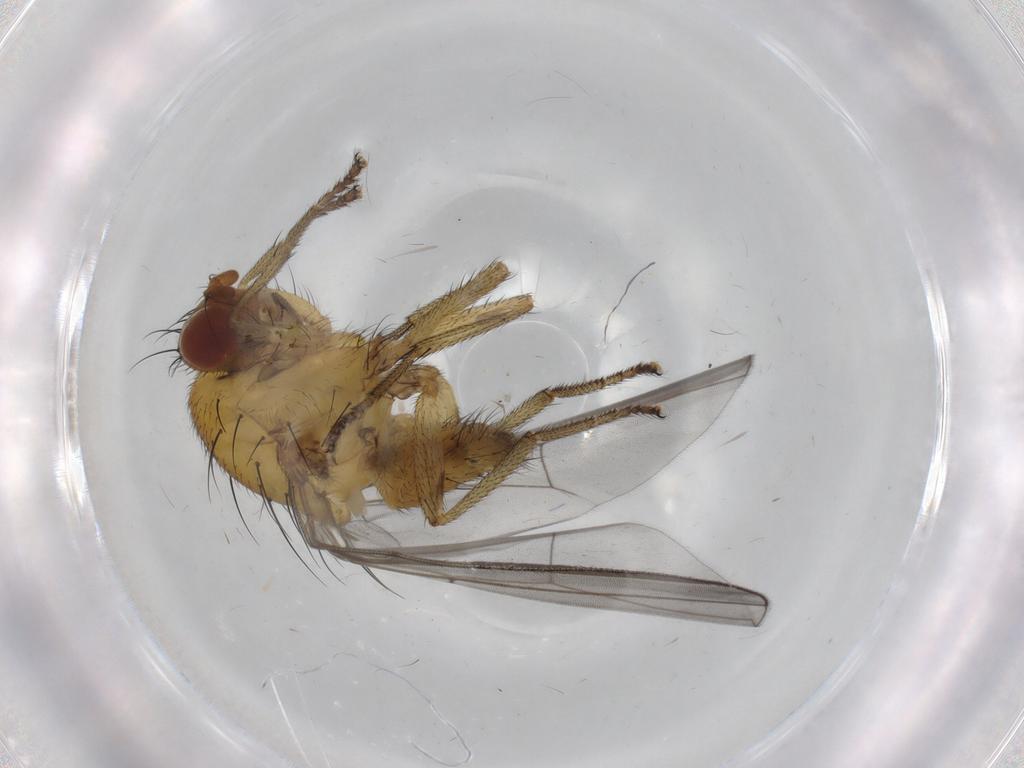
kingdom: Animalia
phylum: Arthropoda
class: Insecta
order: Diptera
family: Lauxaniidae
